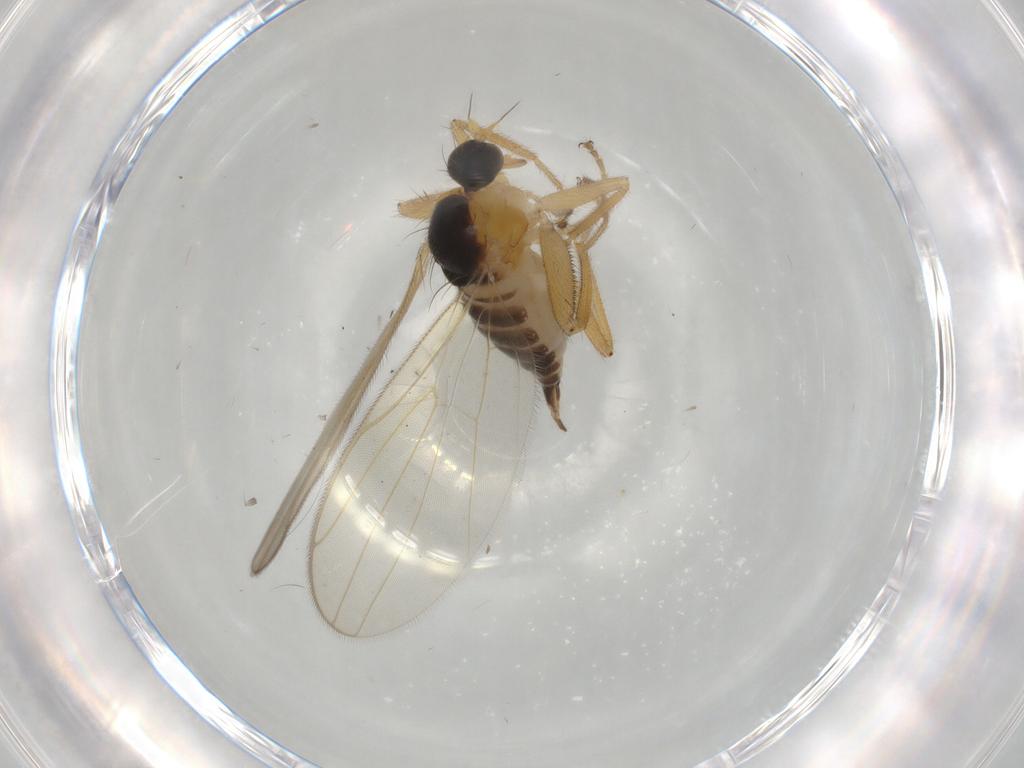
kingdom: Animalia
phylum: Arthropoda
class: Insecta
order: Diptera
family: Hybotidae
